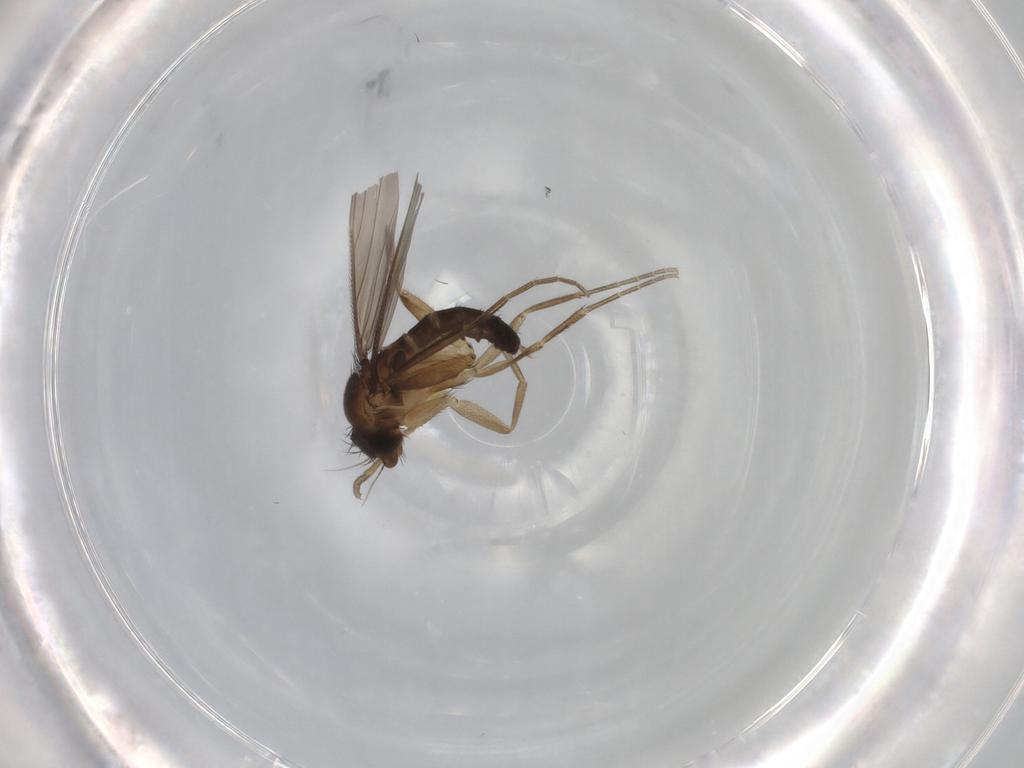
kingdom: Animalia
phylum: Arthropoda
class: Insecta
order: Diptera
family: Phoridae
